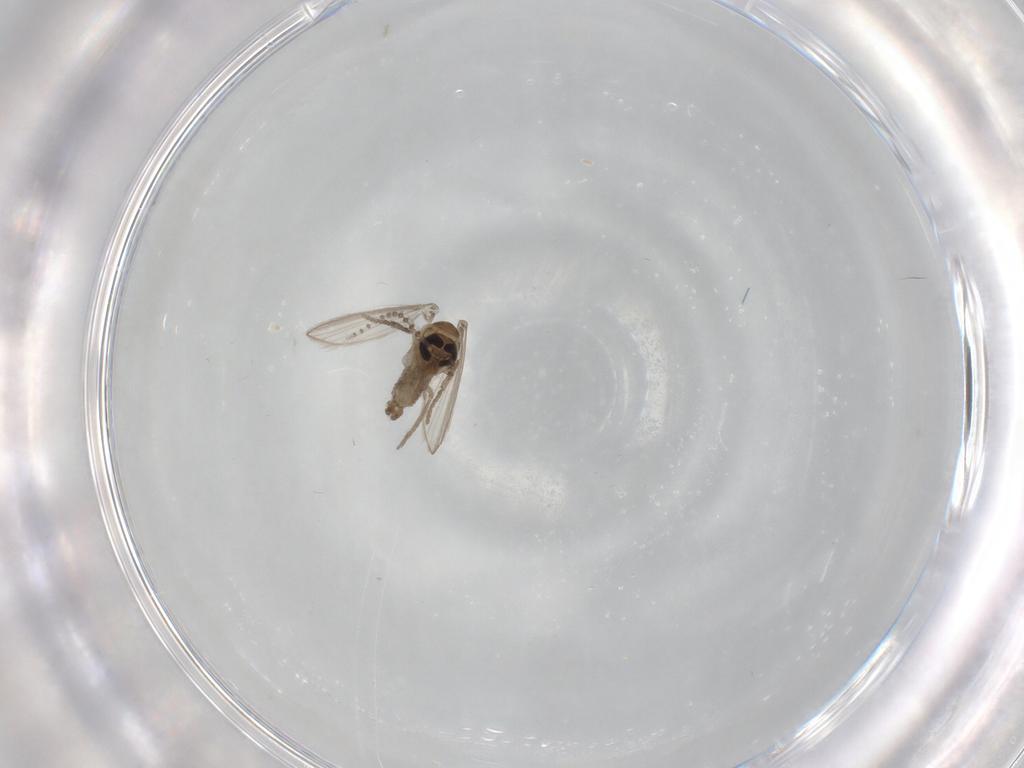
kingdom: Animalia
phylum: Arthropoda
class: Insecta
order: Diptera
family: Psychodidae
